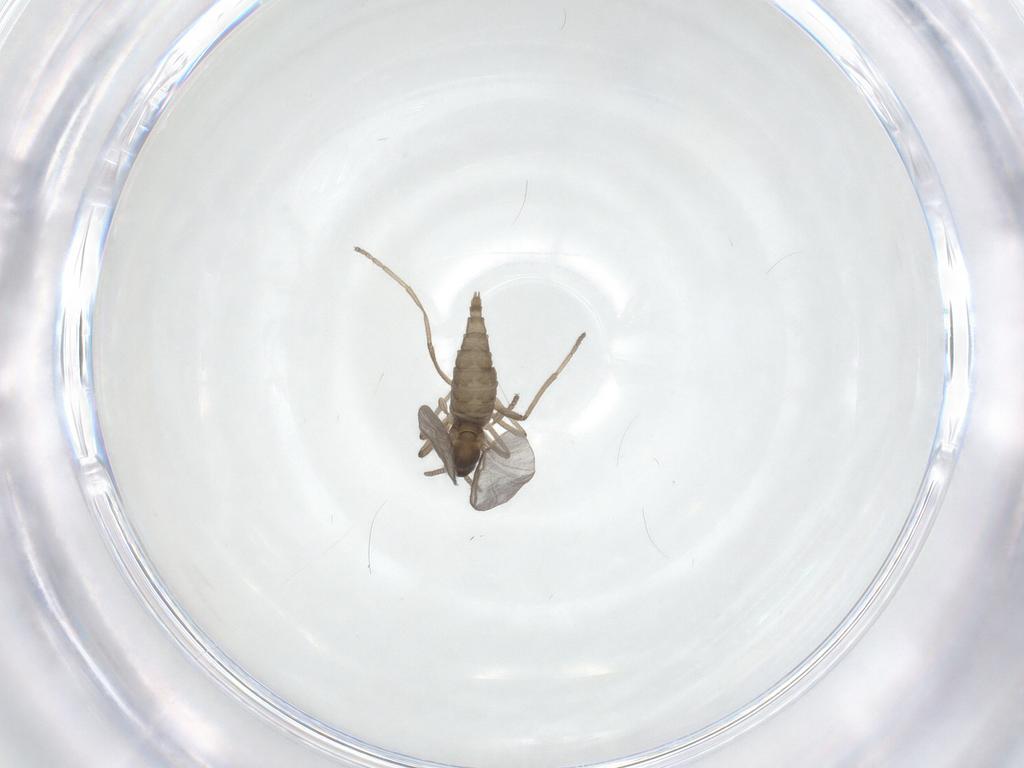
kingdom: Animalia
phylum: Arthropoda
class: Insecta
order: Diptera
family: Cecidomyiidae
